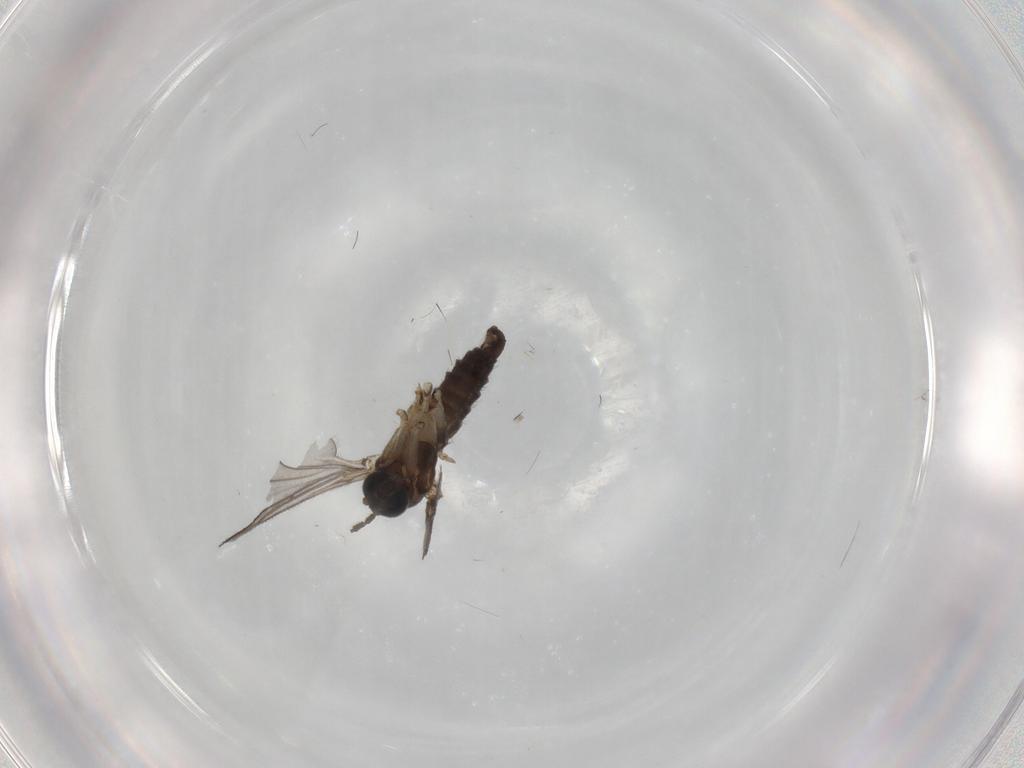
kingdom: Animalia
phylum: Arthropoda
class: Insecta
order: Diptera
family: Sciaridae
